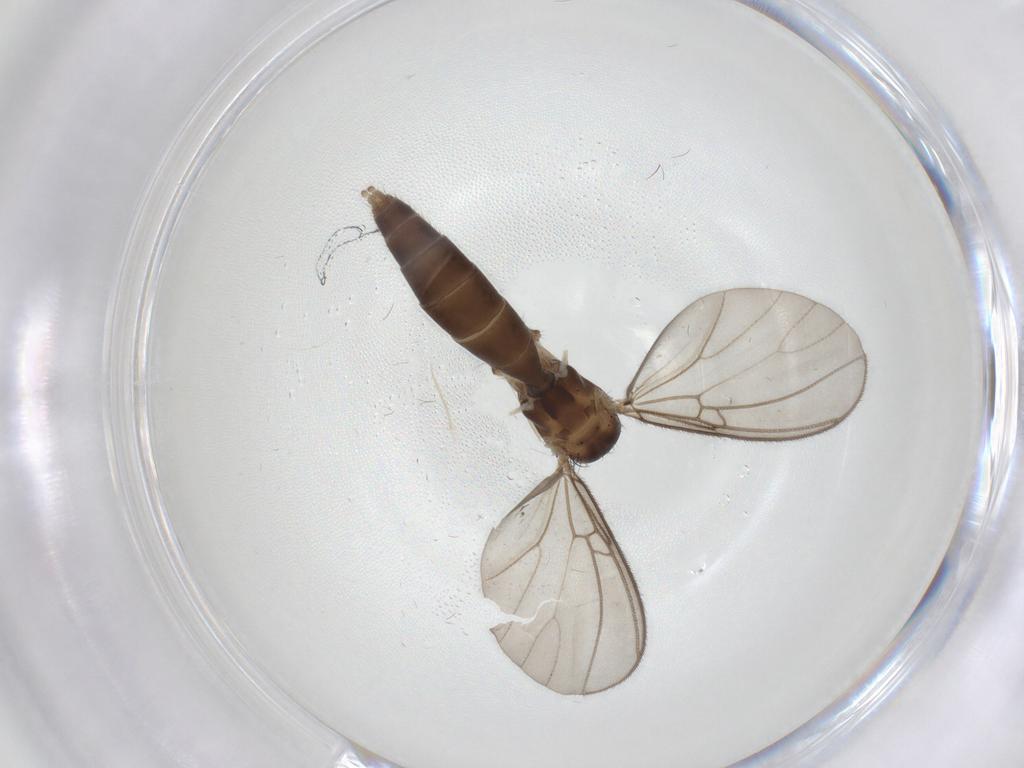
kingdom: Animalia
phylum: Arthropoda
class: Insecta
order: Diptera
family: Mycetophilidae
